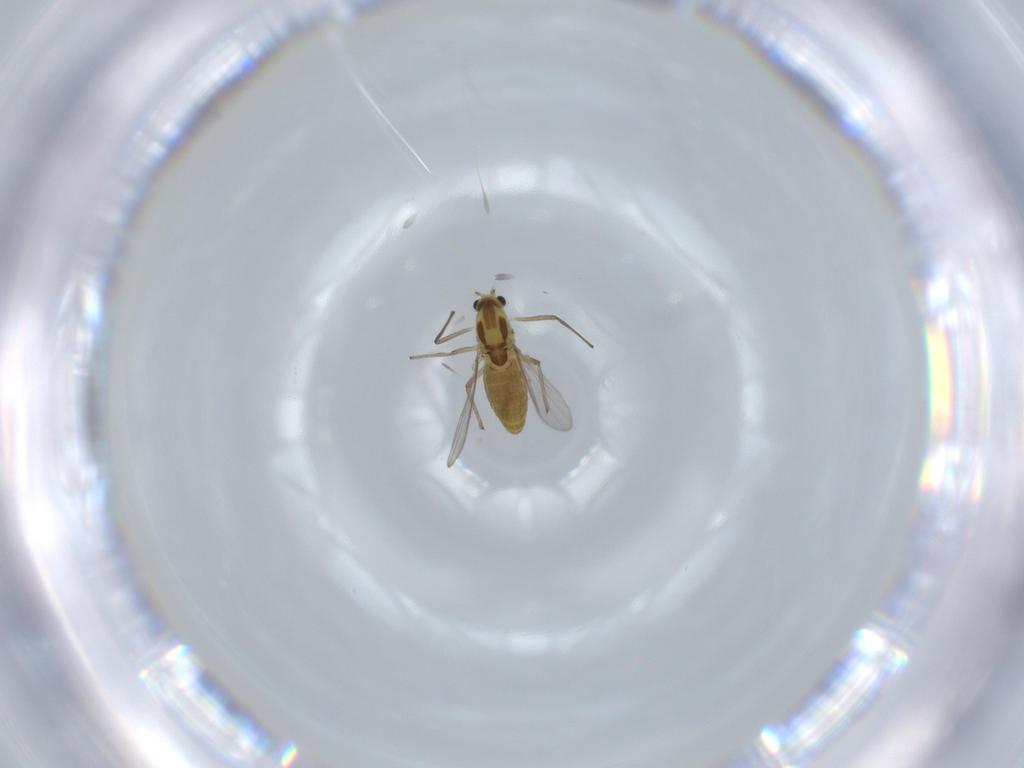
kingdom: Animalia
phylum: Arthropoda
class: Insecta
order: Diptera
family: Chironomidae
